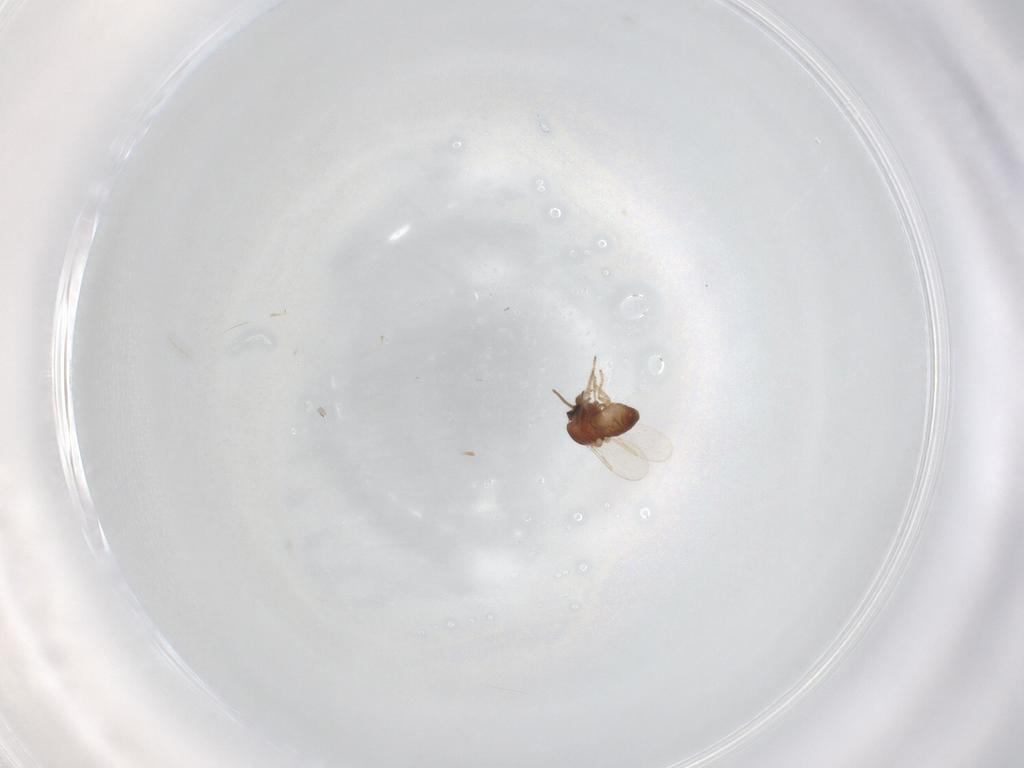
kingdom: Animalia
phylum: Arthropoda
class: Insecta
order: Diptera
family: Ceratopogonidae
